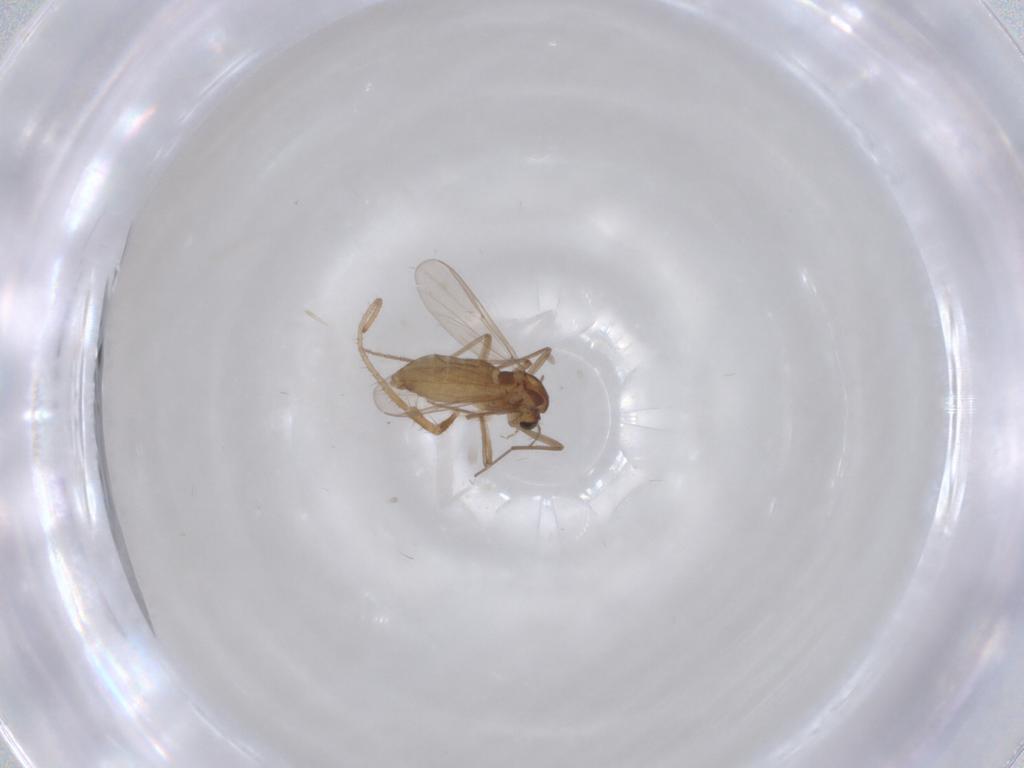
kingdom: Animalia
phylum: Arthropoda
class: Insecta
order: Diptera
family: Chironomidae
